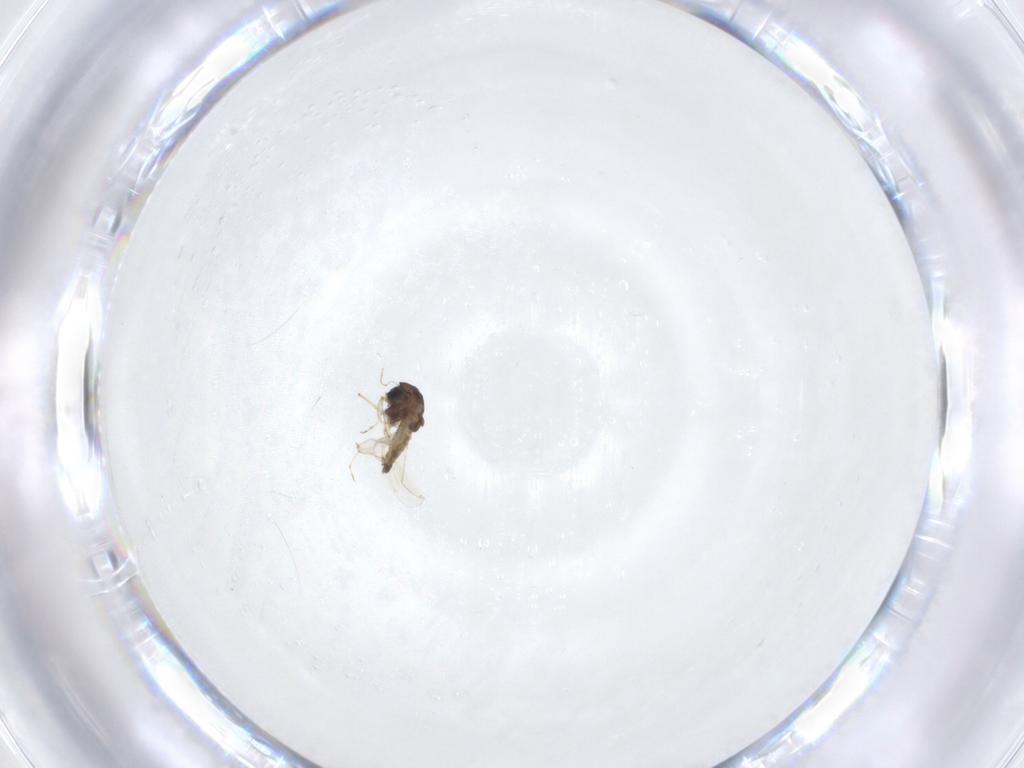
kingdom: Animalia
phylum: Arthropoda
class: Insecta
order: Diptera
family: Chironomidae
